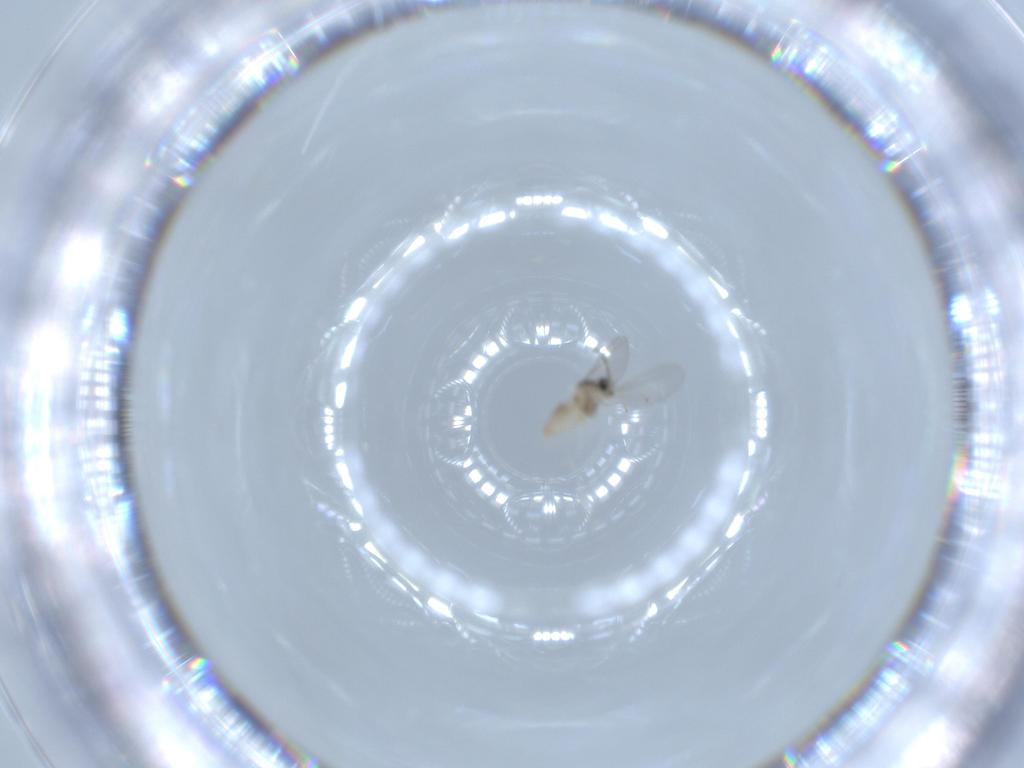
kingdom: Animalia
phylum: Arthropoda
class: Insecta
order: Diptera
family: Cecidomyiidae
